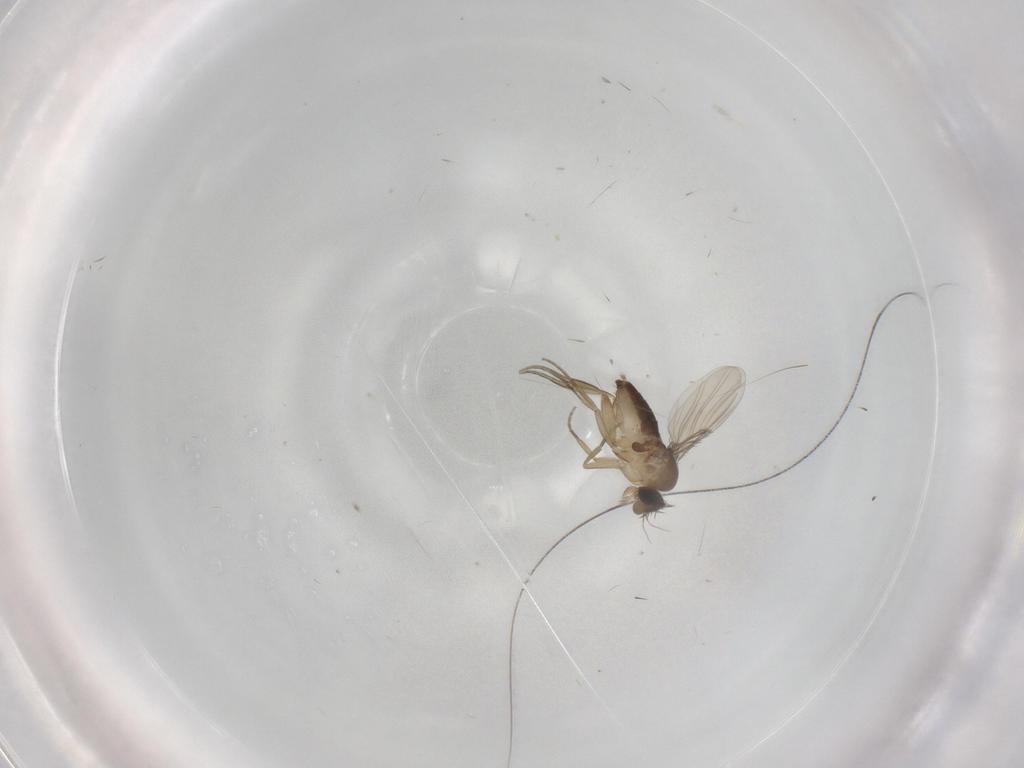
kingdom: Animalia
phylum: Arthropoda
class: Insecta
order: Diptera
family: Phoridae
